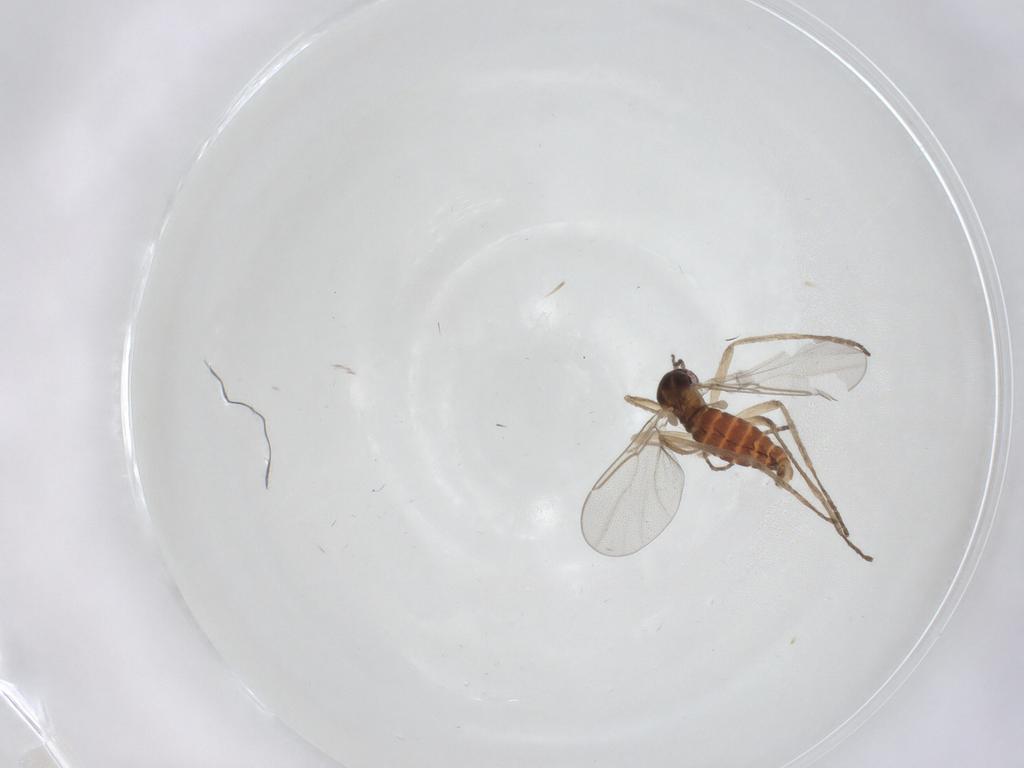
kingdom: Animalia
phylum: Arthropoda
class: Insecta
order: Diptera
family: Cecidomyiidae
